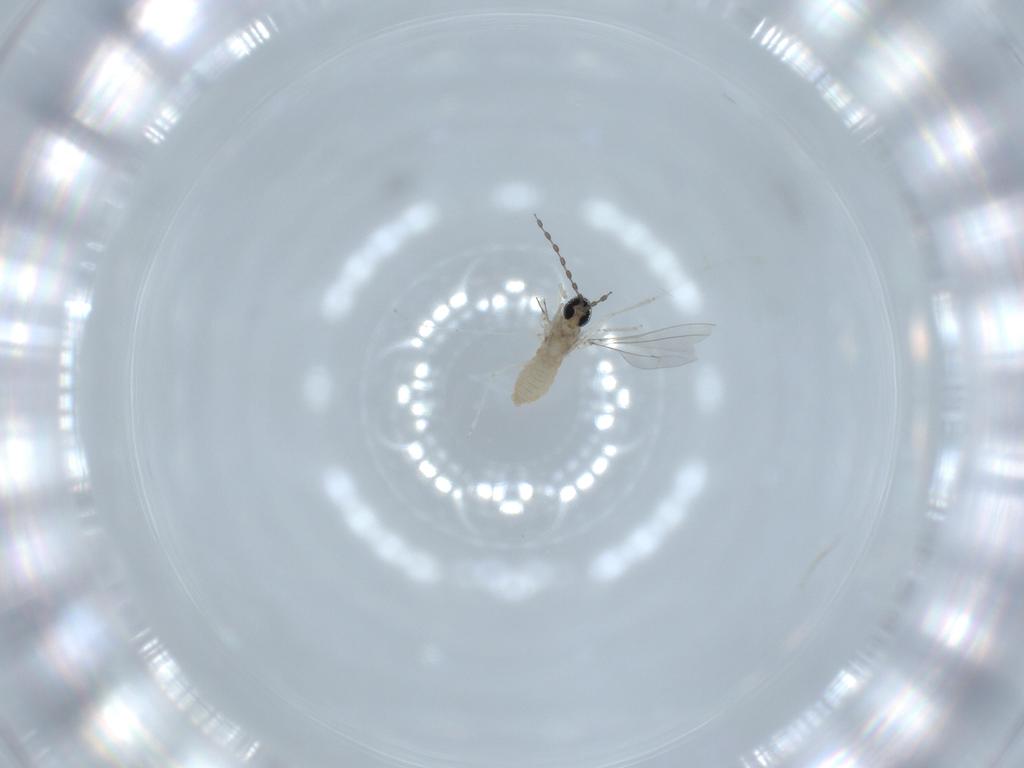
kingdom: Animalia
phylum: Arthropoda
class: Insecta
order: Diptera
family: Cecidomyiidae
